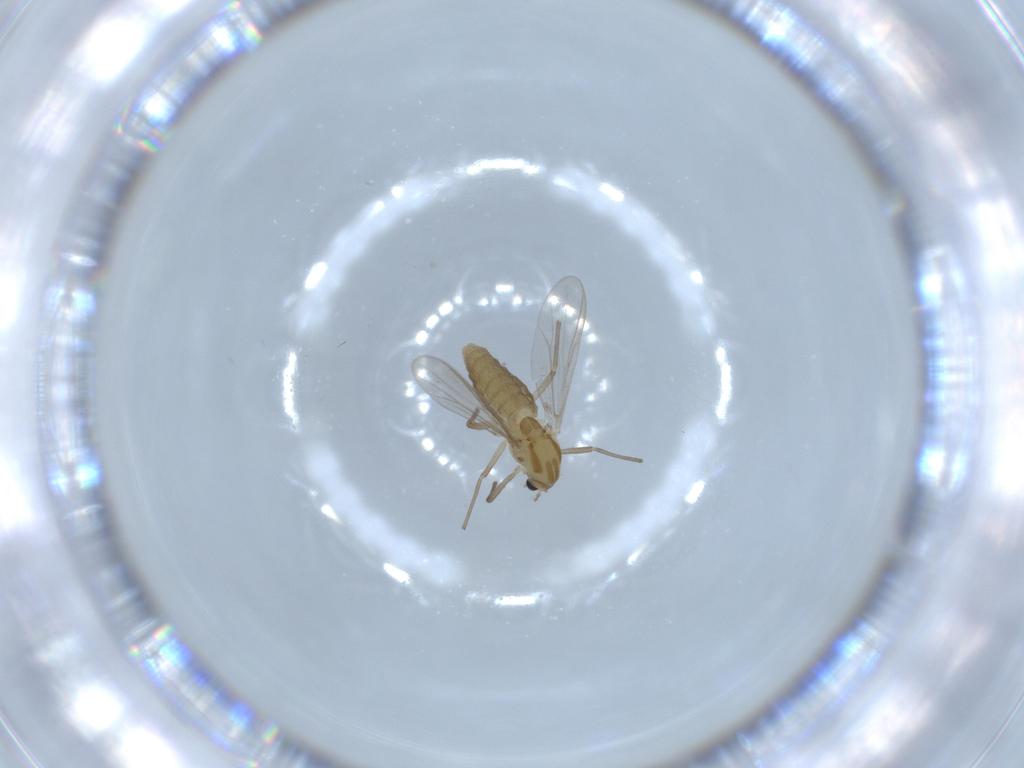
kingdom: Animalia
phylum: Arthropoda
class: Insecta
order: Diptera
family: Chironomidae
